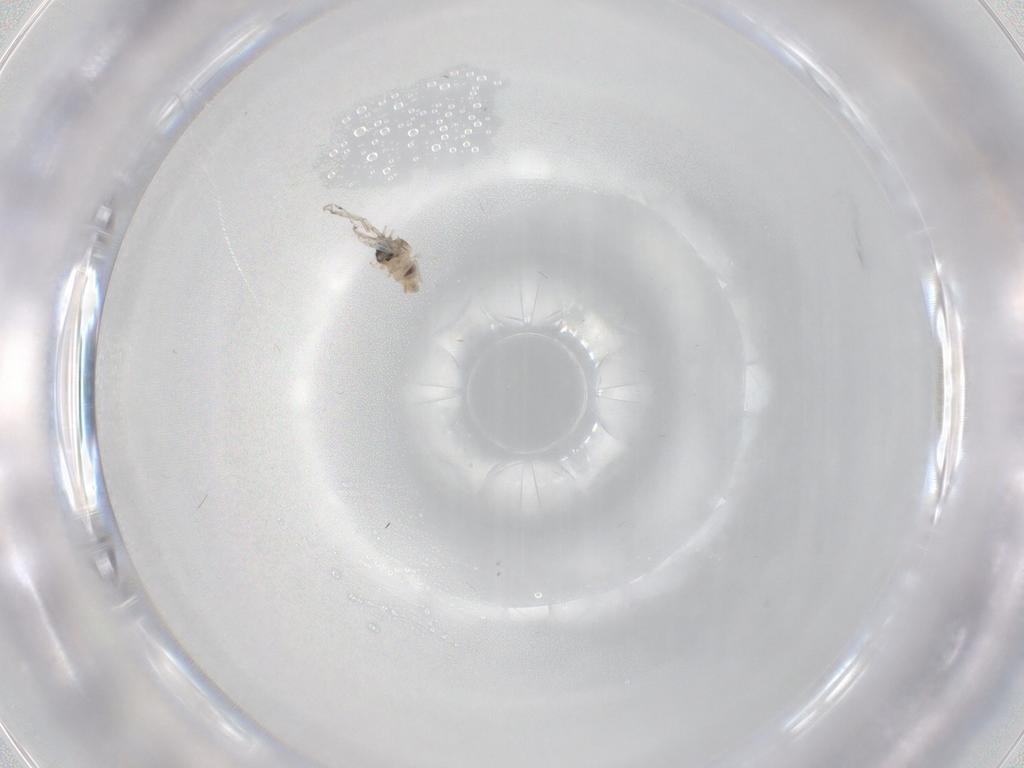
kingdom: Animalia
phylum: Arthropoda
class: Insecta
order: Diptera
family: Cecidomyiidae
